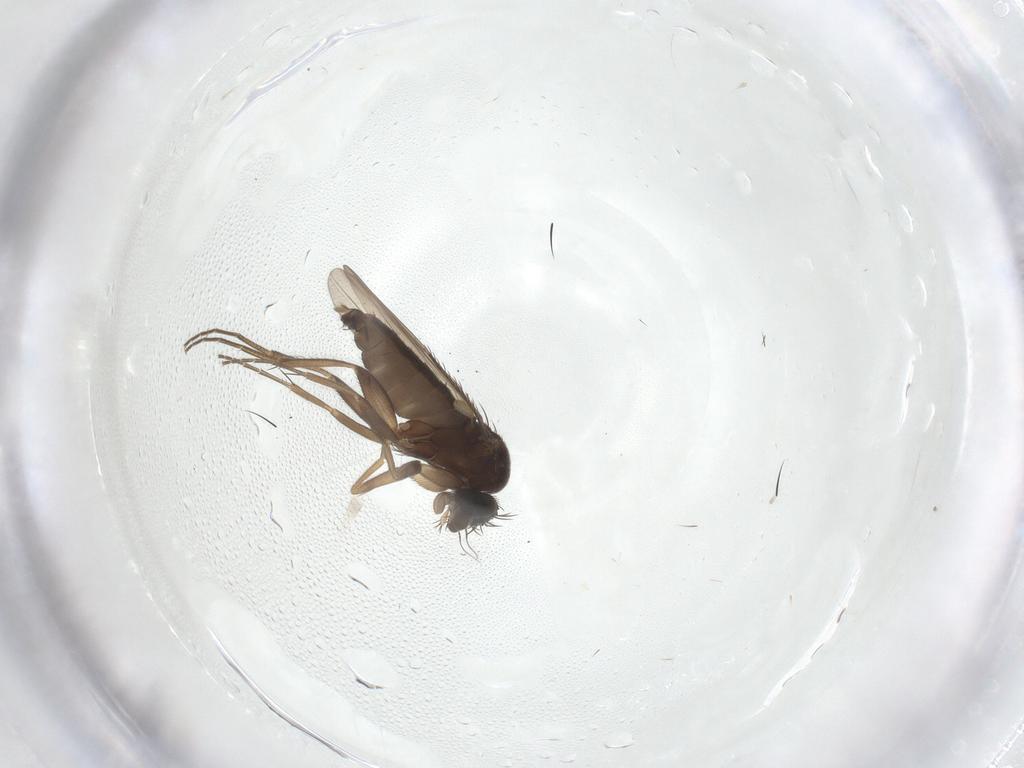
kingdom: Animalia
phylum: Arthropoda
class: Insecta
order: Diptera
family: Phoridae
